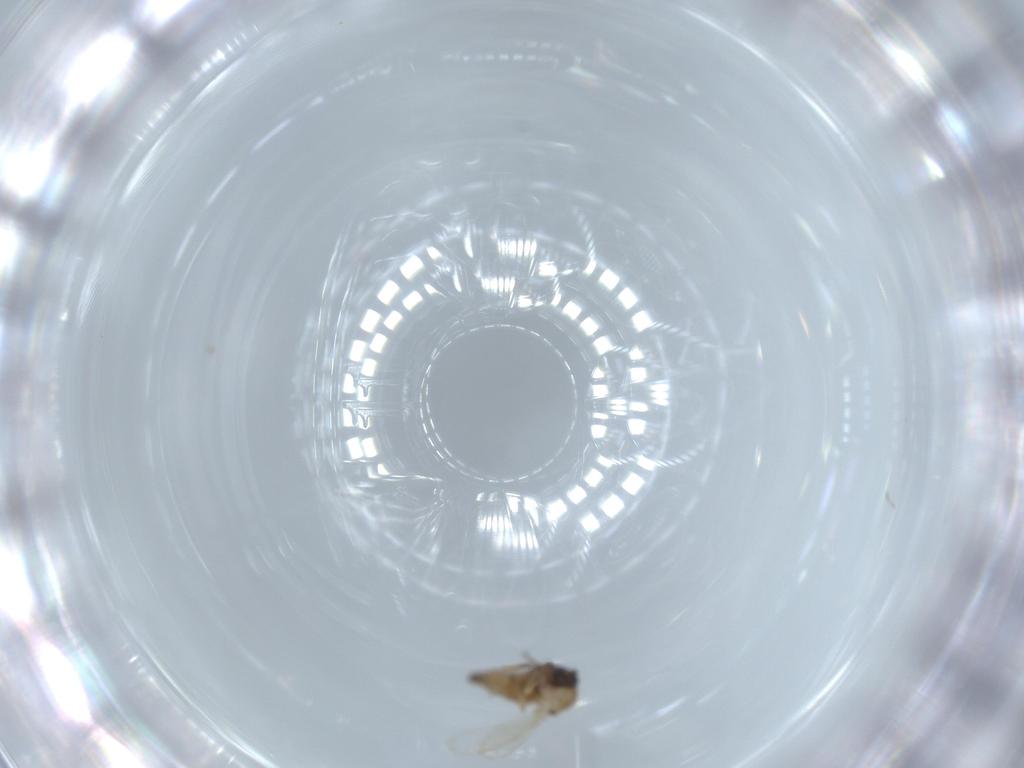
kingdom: Animalia
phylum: Arthropoda
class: Insecta
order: Diptera
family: Ceratopogonidae
